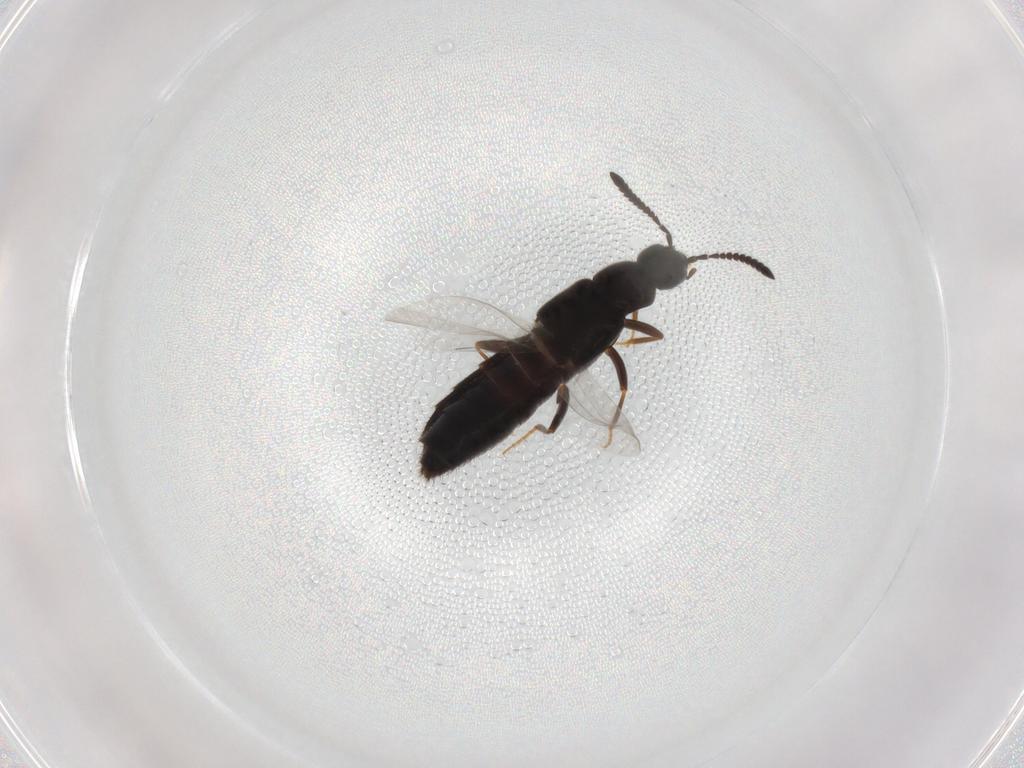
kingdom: Animalia
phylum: Arthropoda
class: Insecta
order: Coleoptera
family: Staphylinidae
